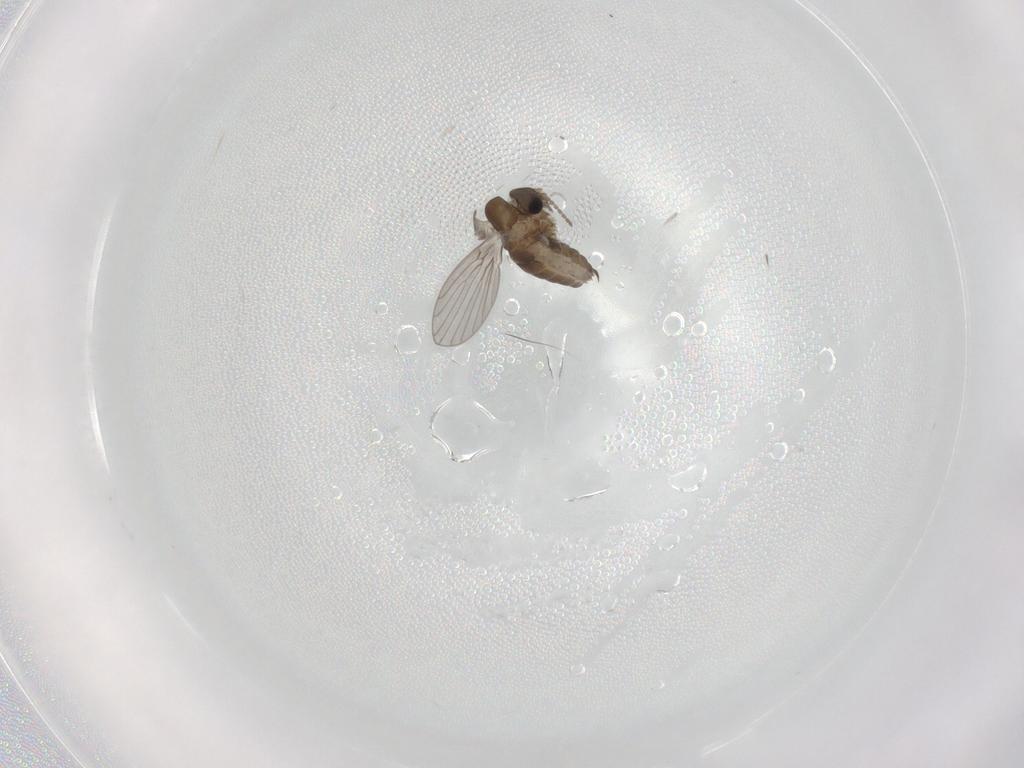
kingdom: Animalia
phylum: Arthropoda
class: Insecta
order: Diptera
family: Cecidomyiidae
